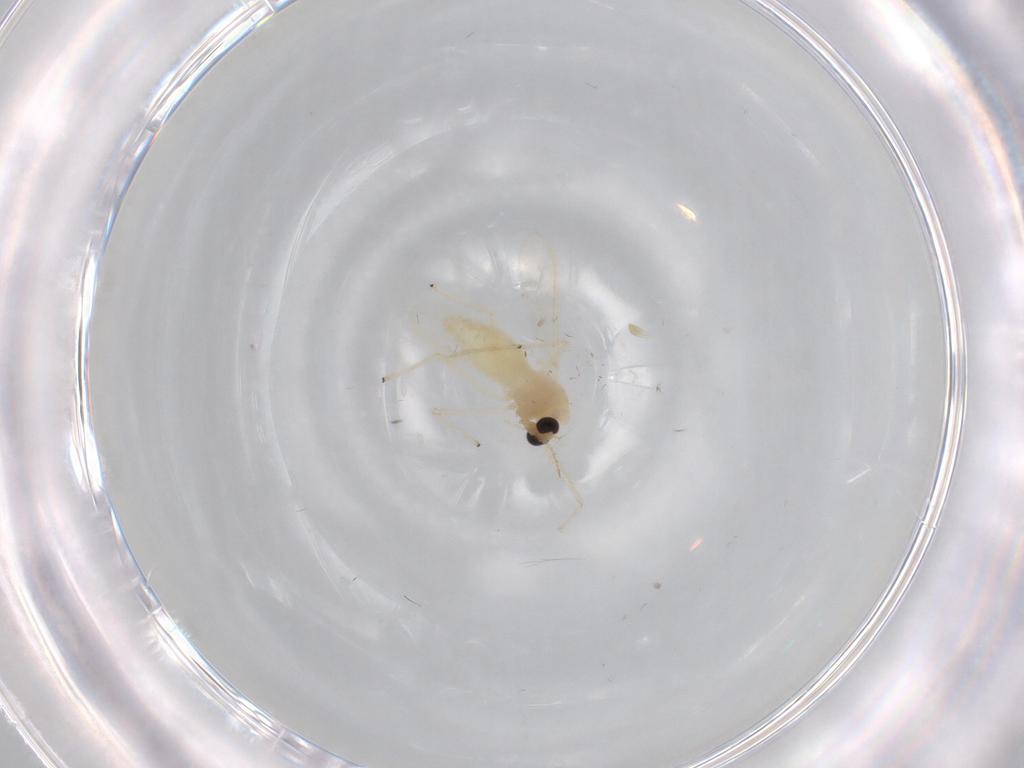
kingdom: Animalia
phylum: Arthropoda
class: Insecta
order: Diptera
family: Chironomidae
